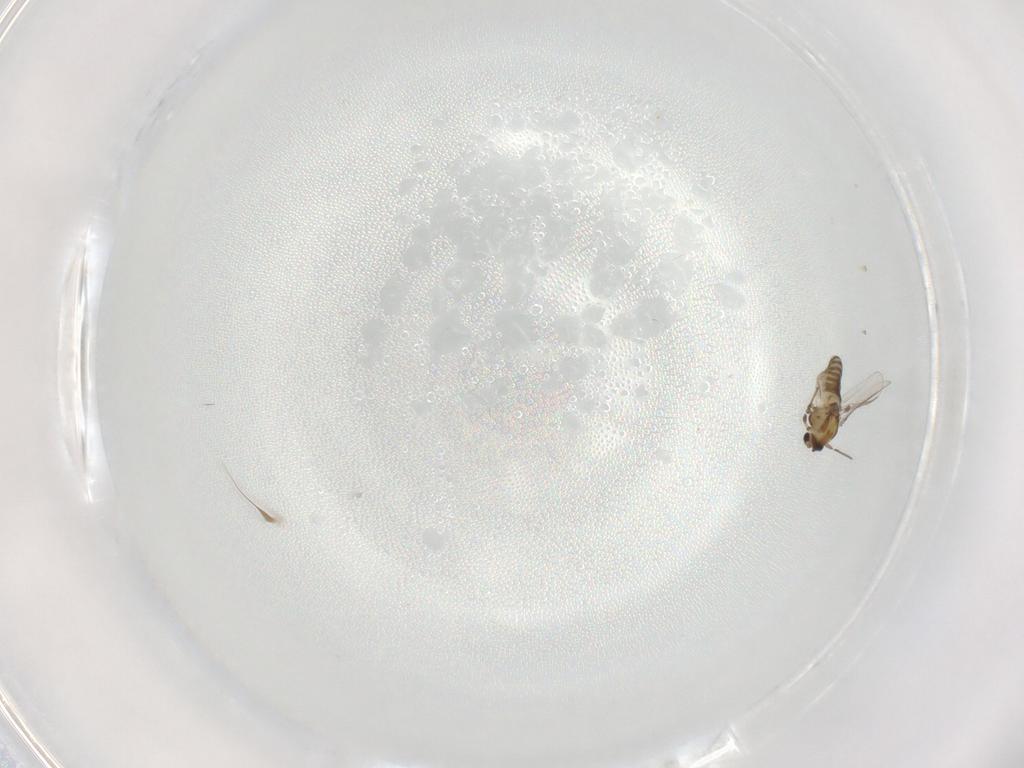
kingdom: Animalia
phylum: Arthropoda
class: Insecta
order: Diptera
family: Chironomidae
